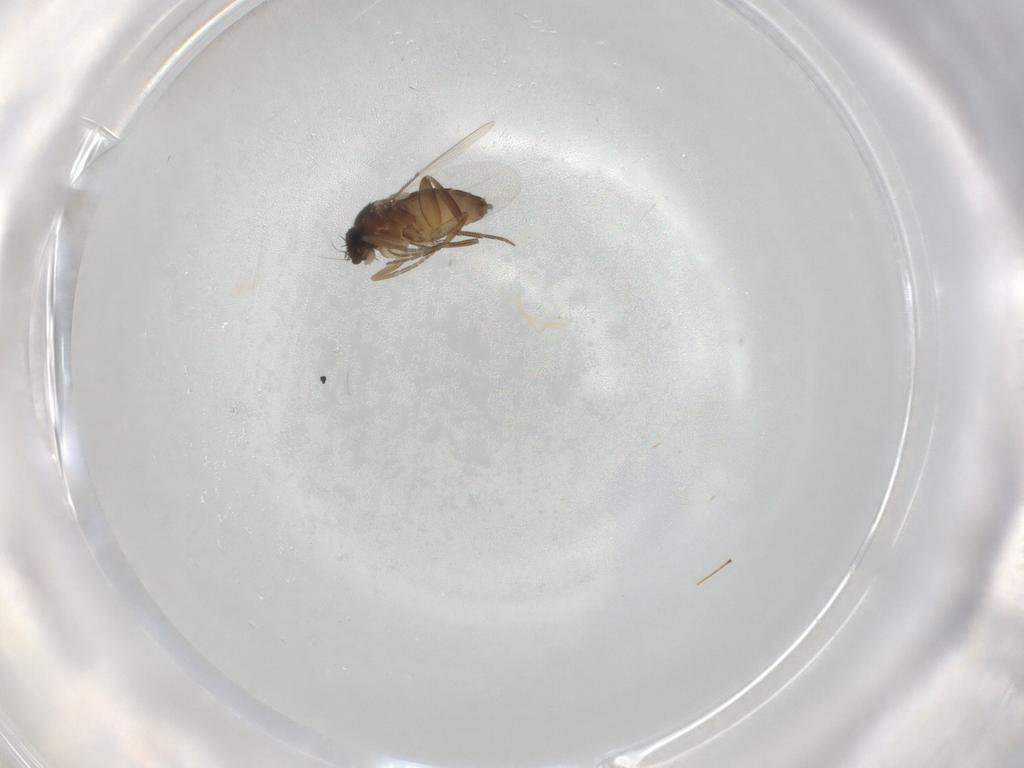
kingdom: Animalia
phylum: Arthropoda
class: Insecta
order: Diptera
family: Phoridae
